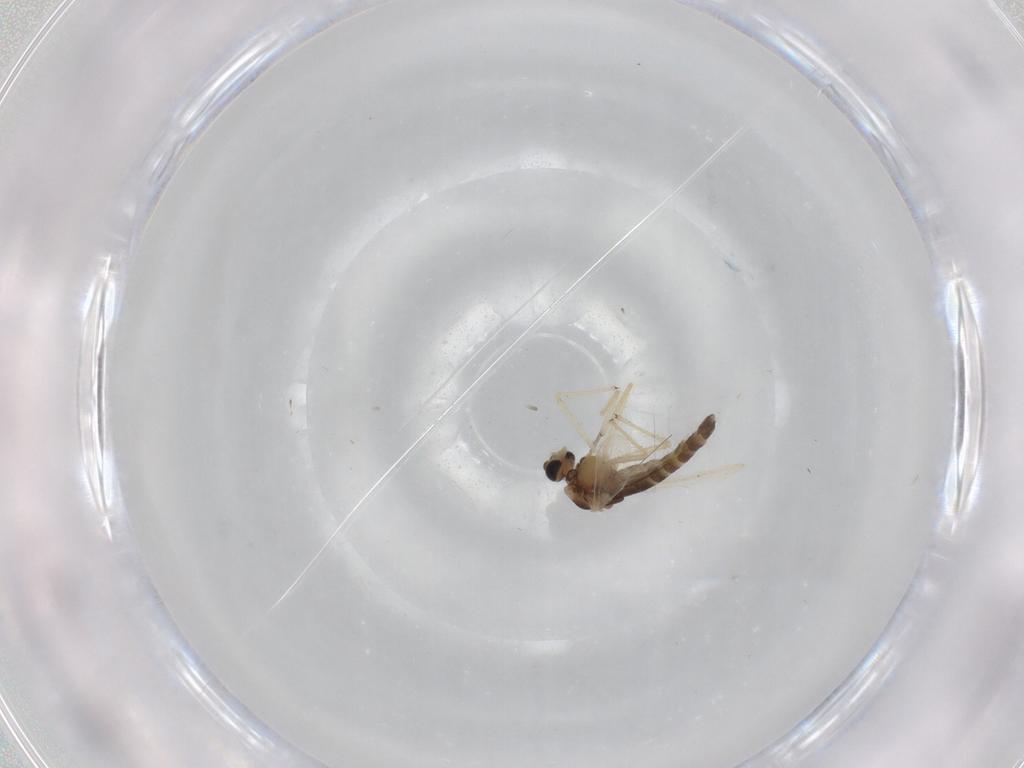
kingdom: Animalia
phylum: Arthropoda
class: Insecta
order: Diptera
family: Chironomidae
